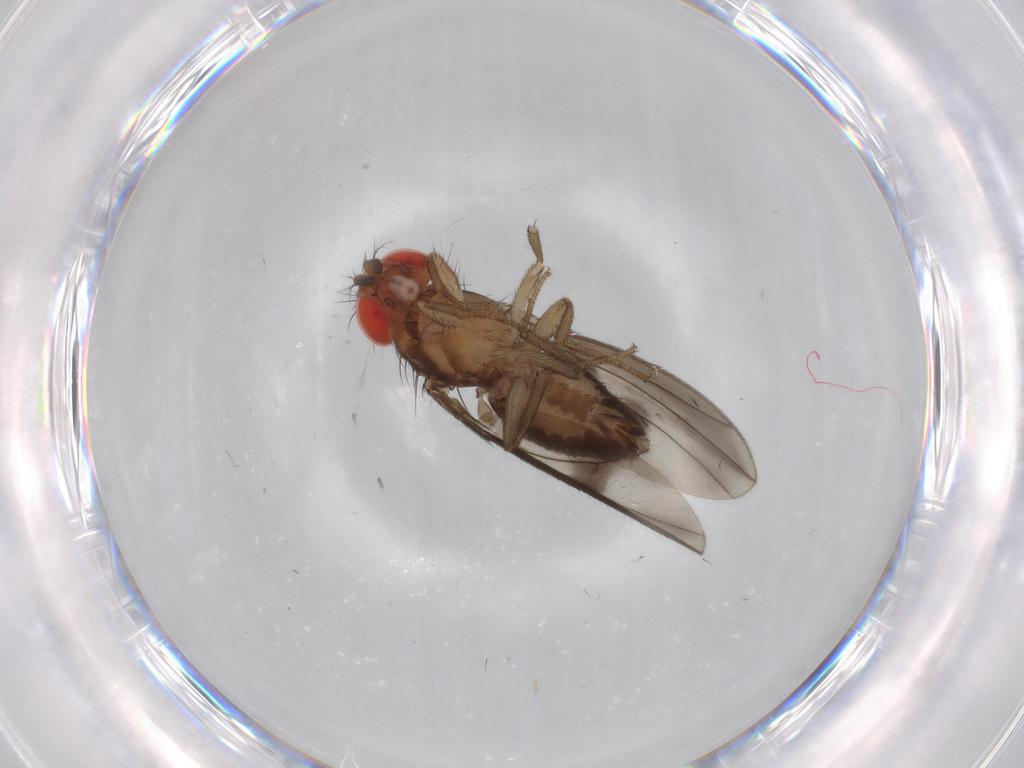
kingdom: Animalia
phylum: Arthropoda
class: Insecta
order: Diptera
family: Drosophilidae
